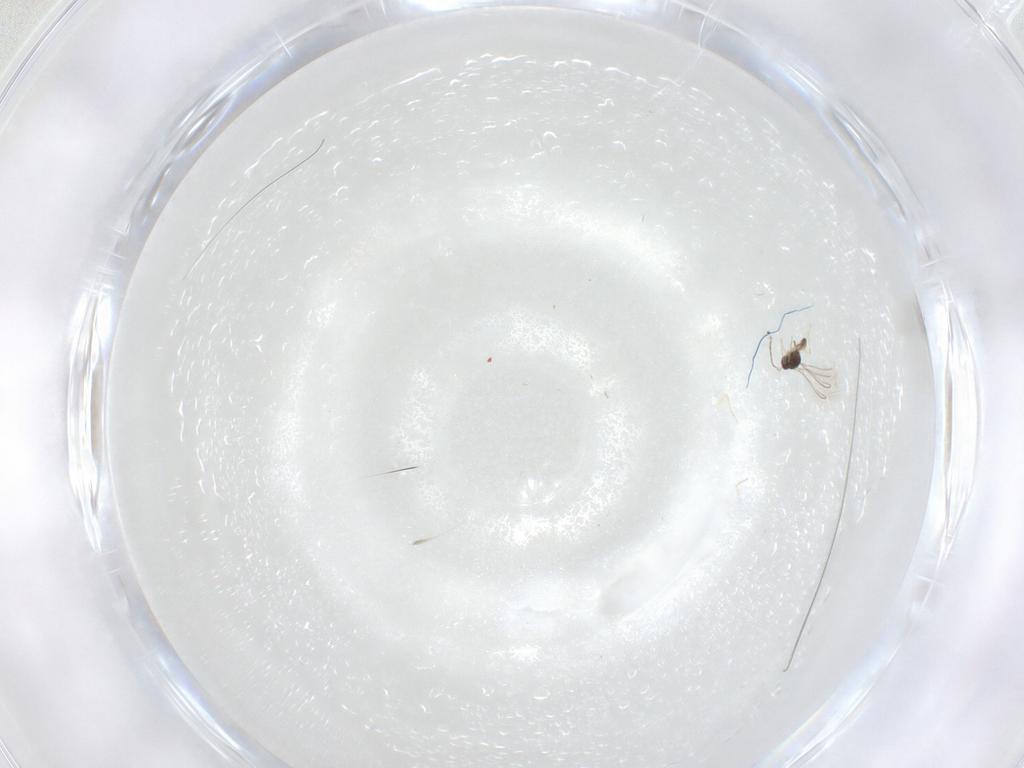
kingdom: Animalia
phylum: Arthropoda
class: Insecta
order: Hymenoptera
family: Mymaridae
